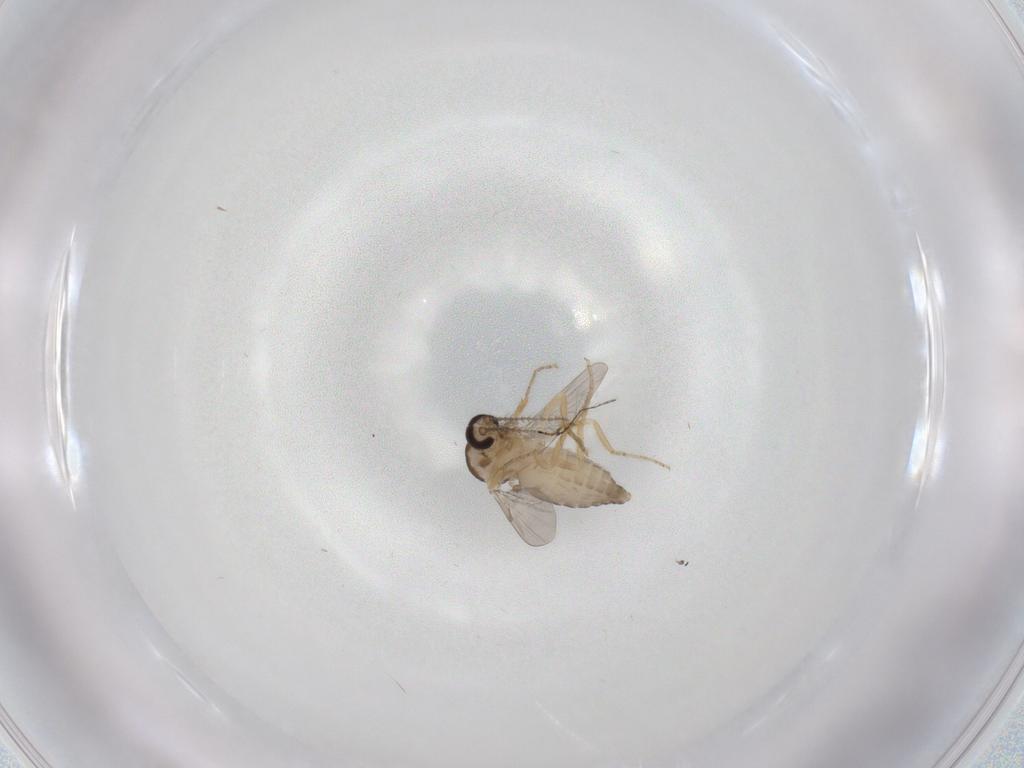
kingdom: Animalia
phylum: Arthropoda
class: Insecta
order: Diptera
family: Ceratopogonidae
